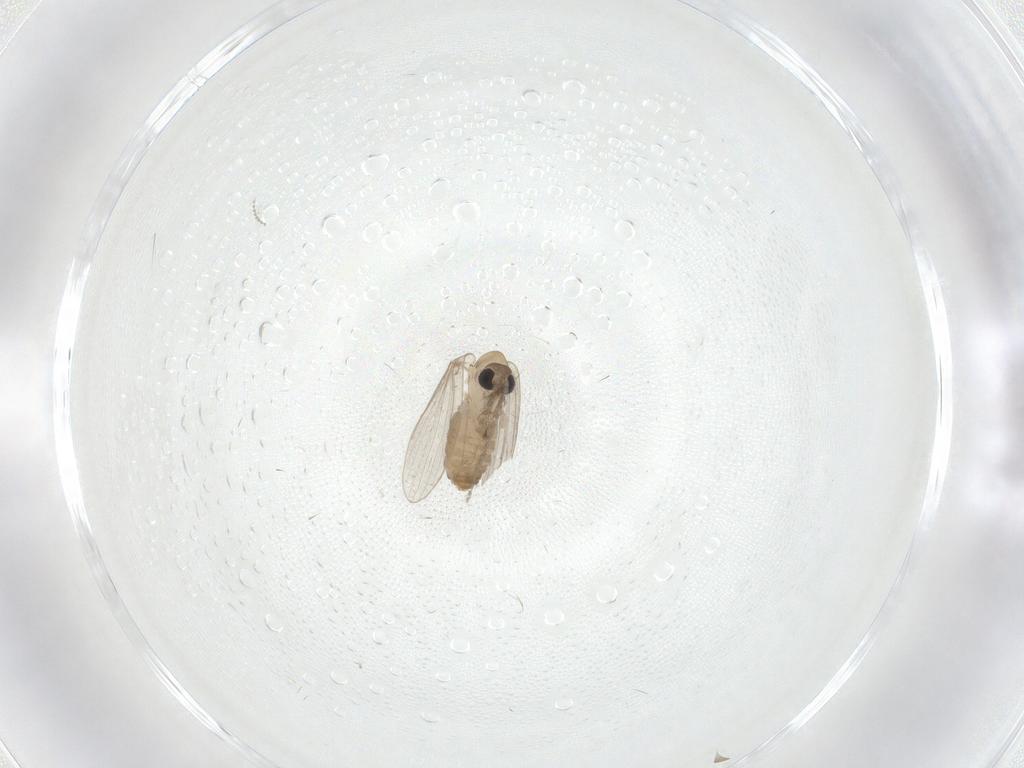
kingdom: Animalia
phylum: Arthropoda
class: Insecta
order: Diptera
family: Psychodidae
